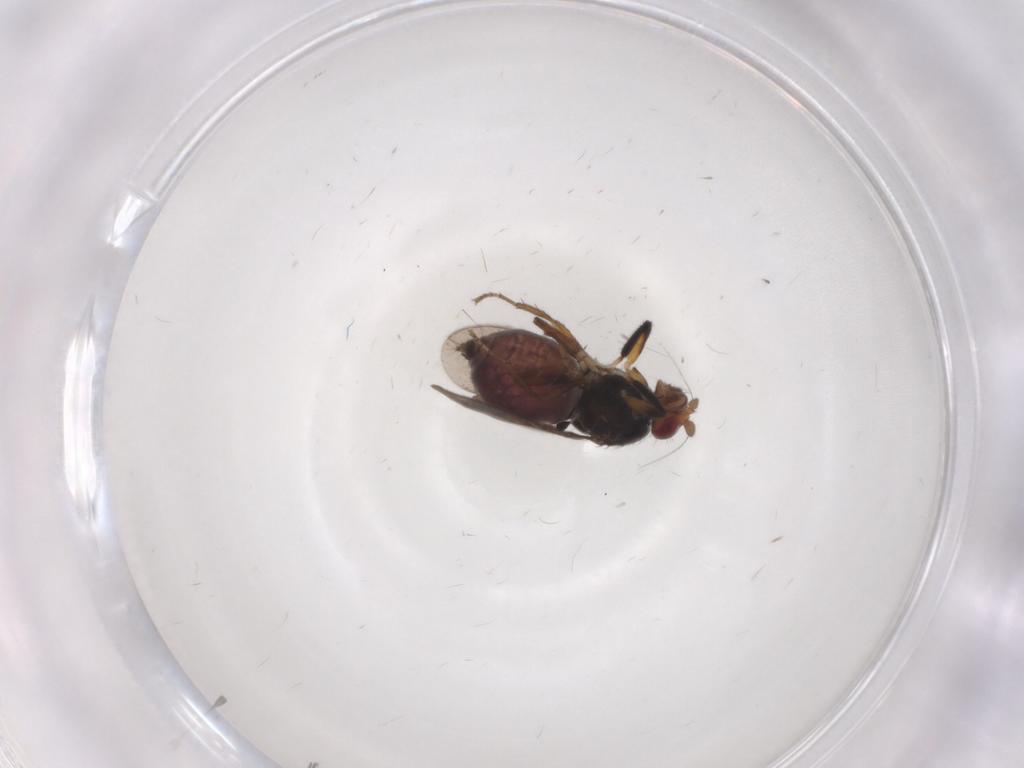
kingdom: Animalia
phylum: Arthropoda
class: Insecta
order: Diptera
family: Sphaeroceridae
